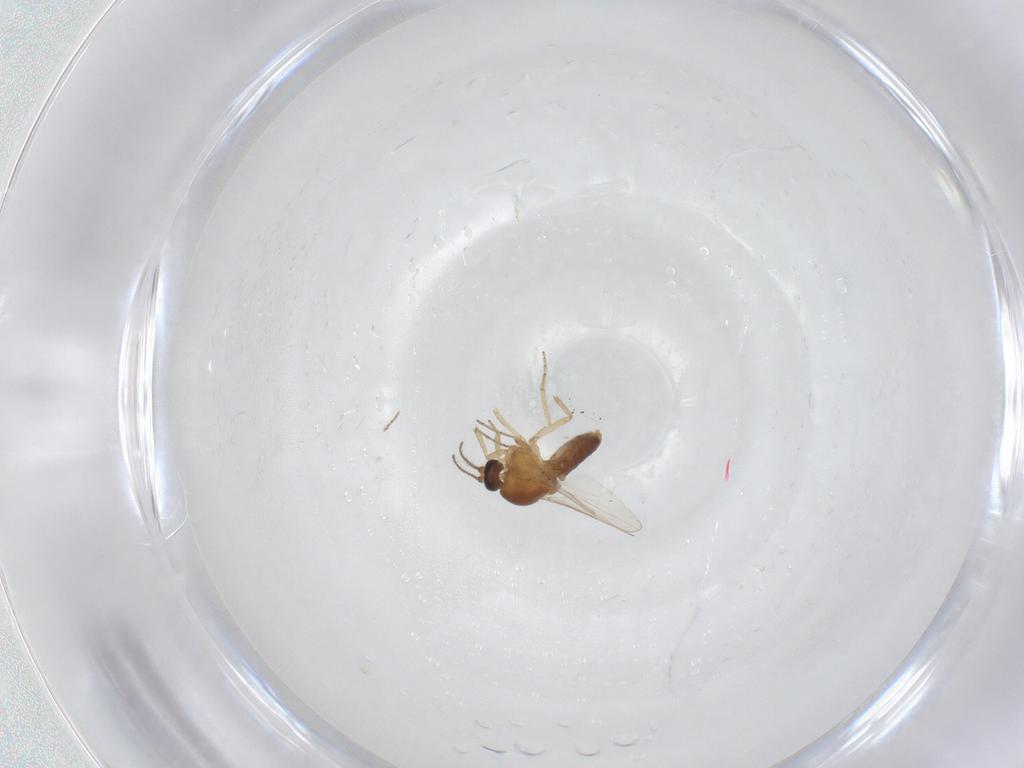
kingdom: Animalia
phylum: Arthropoda
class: Insecta
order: Diptera
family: Ceratopogonidae
